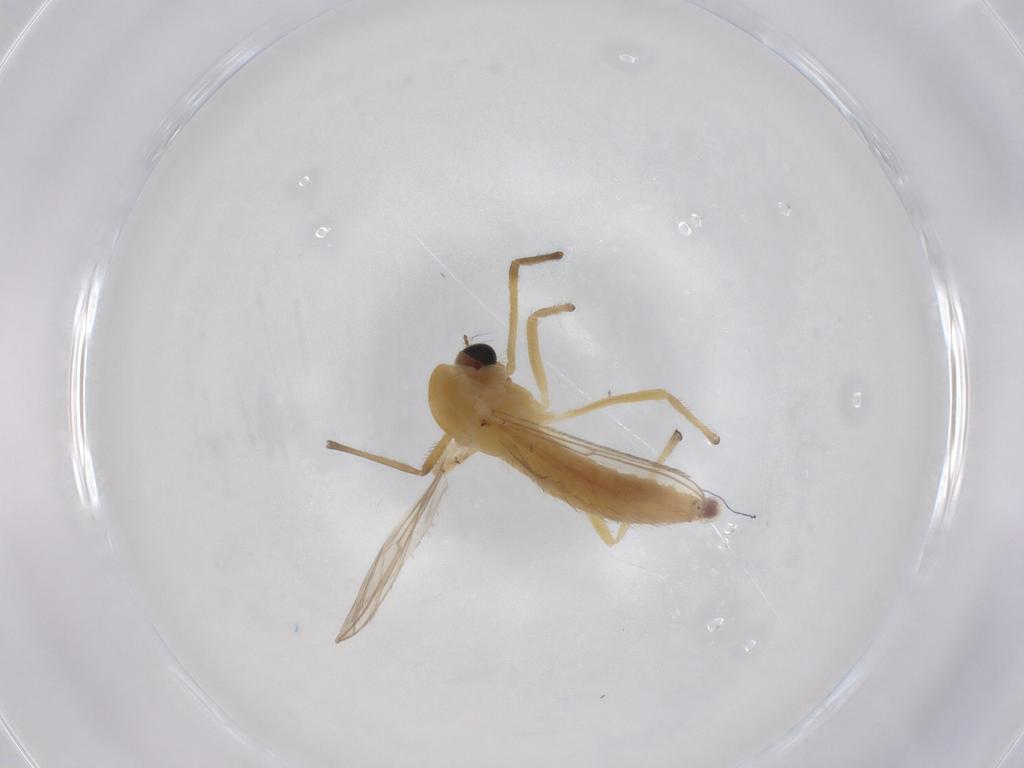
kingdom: Animalia
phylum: Arthropoda
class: Insecta
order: Diptera
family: Chironomidae
